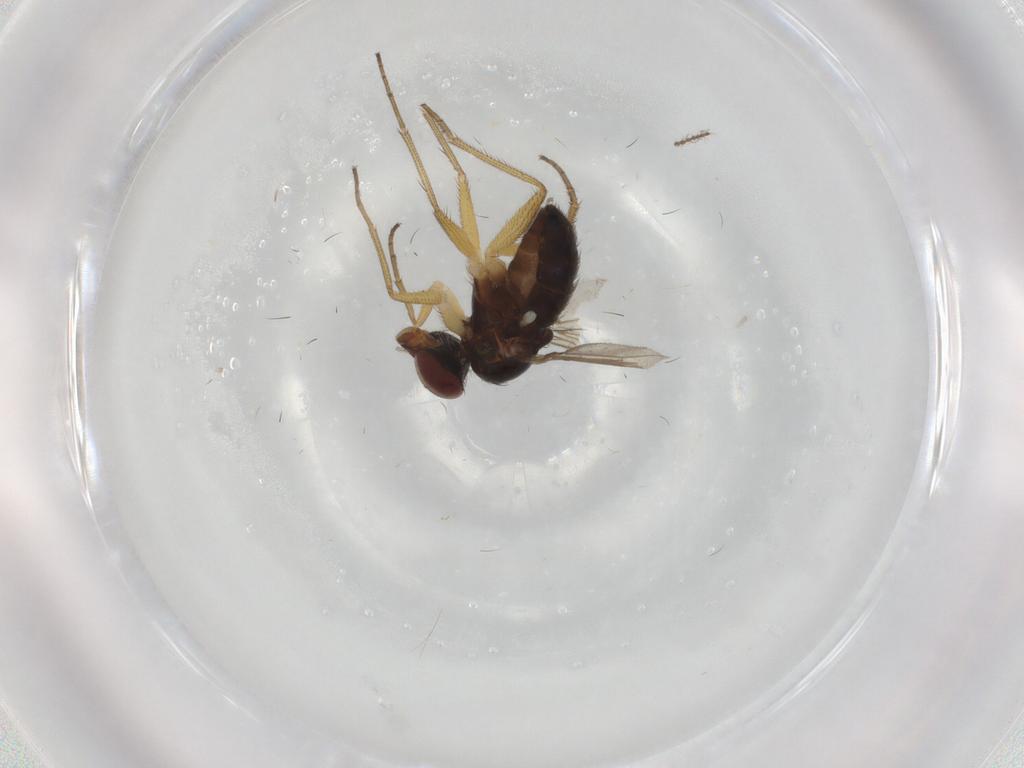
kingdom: Animalia
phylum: Arthropoda
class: Insecta
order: Diptera
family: Dolichopodidae
